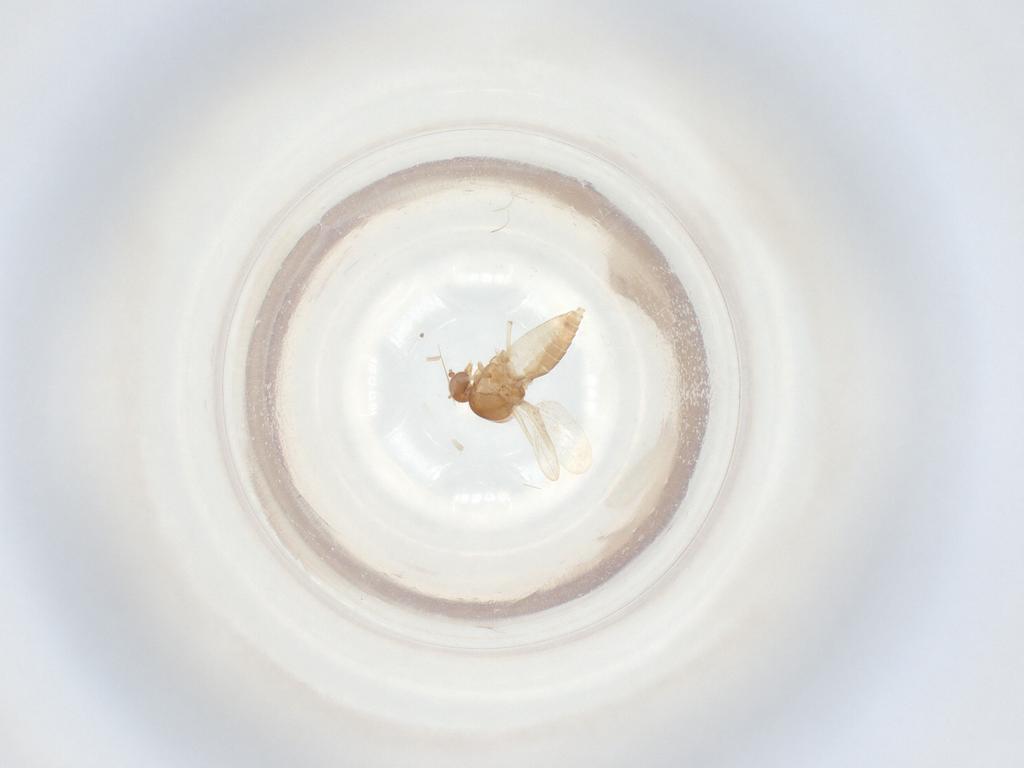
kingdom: Animalia
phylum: Arthropoda
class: Insecta
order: Diptera
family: Ceratopogonidae
